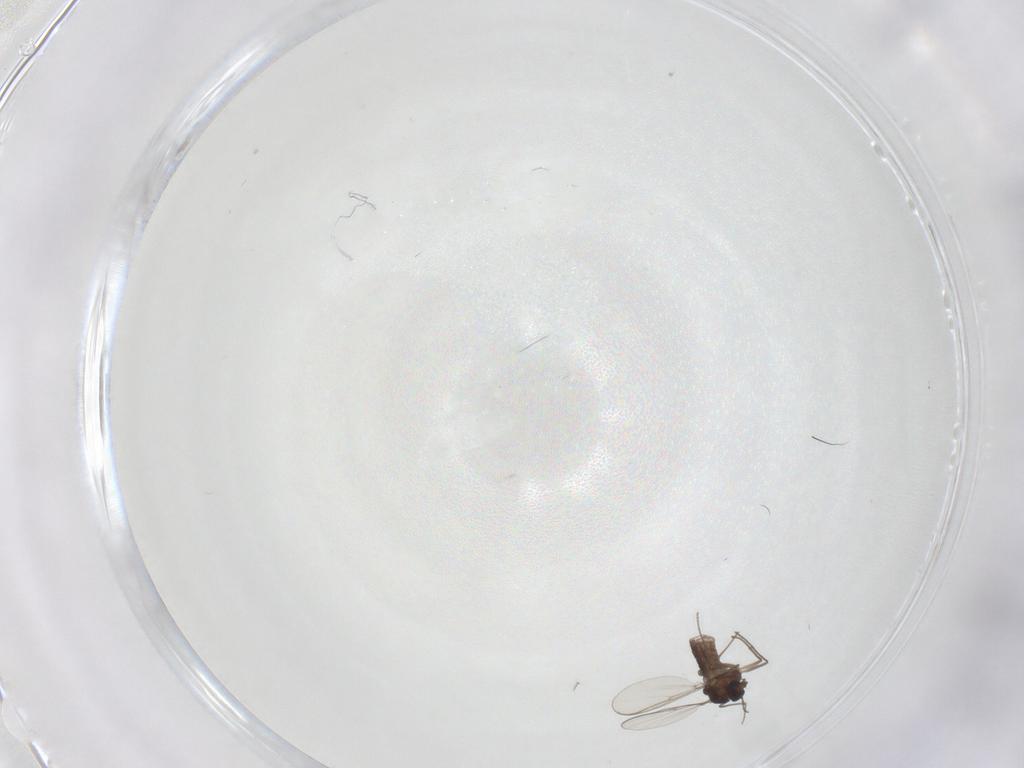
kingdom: Animalia
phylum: Arthropoda
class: Insecta
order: Diptera
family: Chironomidae
